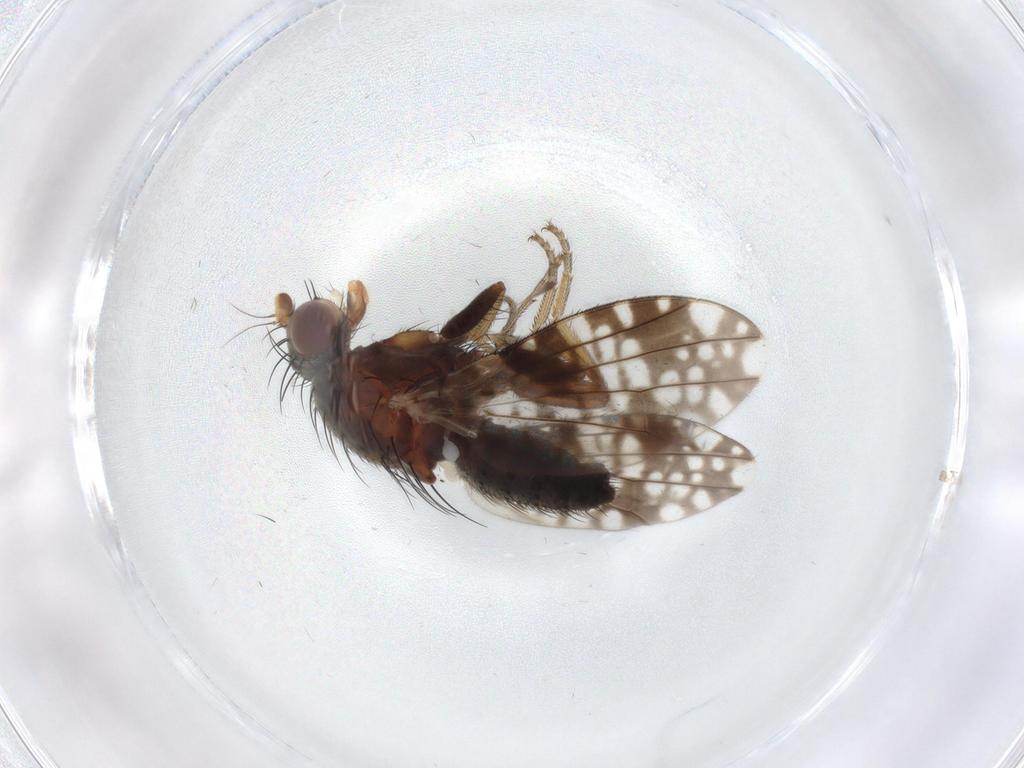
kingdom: Animalia
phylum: Arthropoda
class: Insecta
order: Diptera
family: Tephritidae
